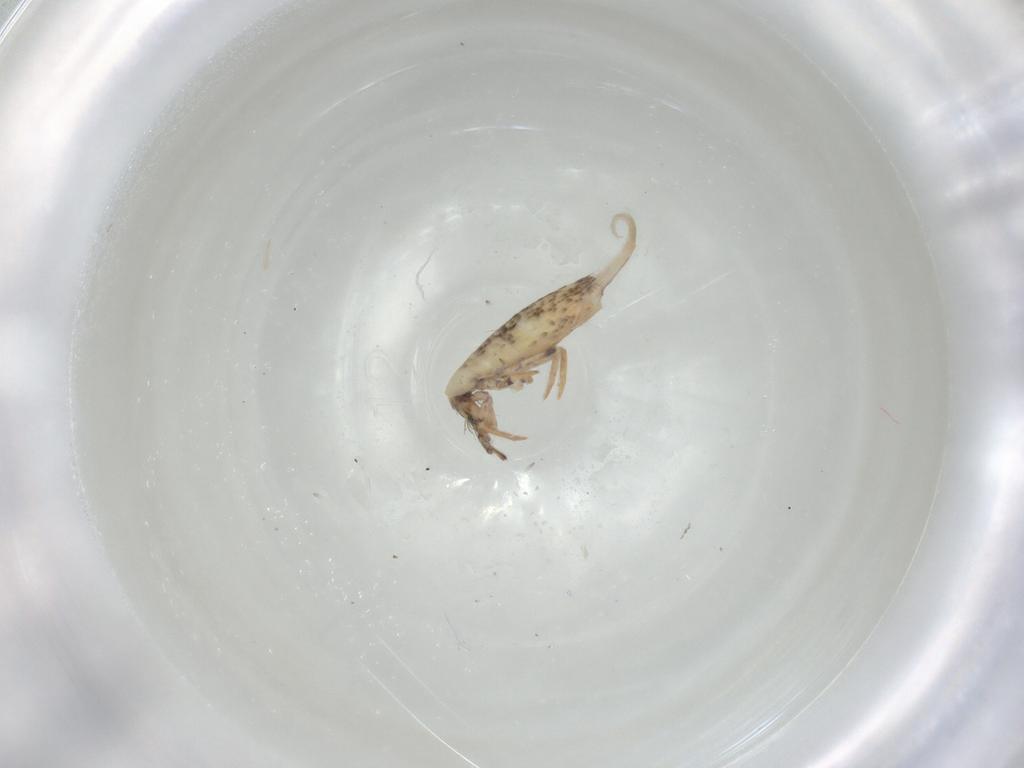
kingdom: Animalia
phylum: Arthropoda
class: Collembola
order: Entomobryomorpha
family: Entomobryidae
